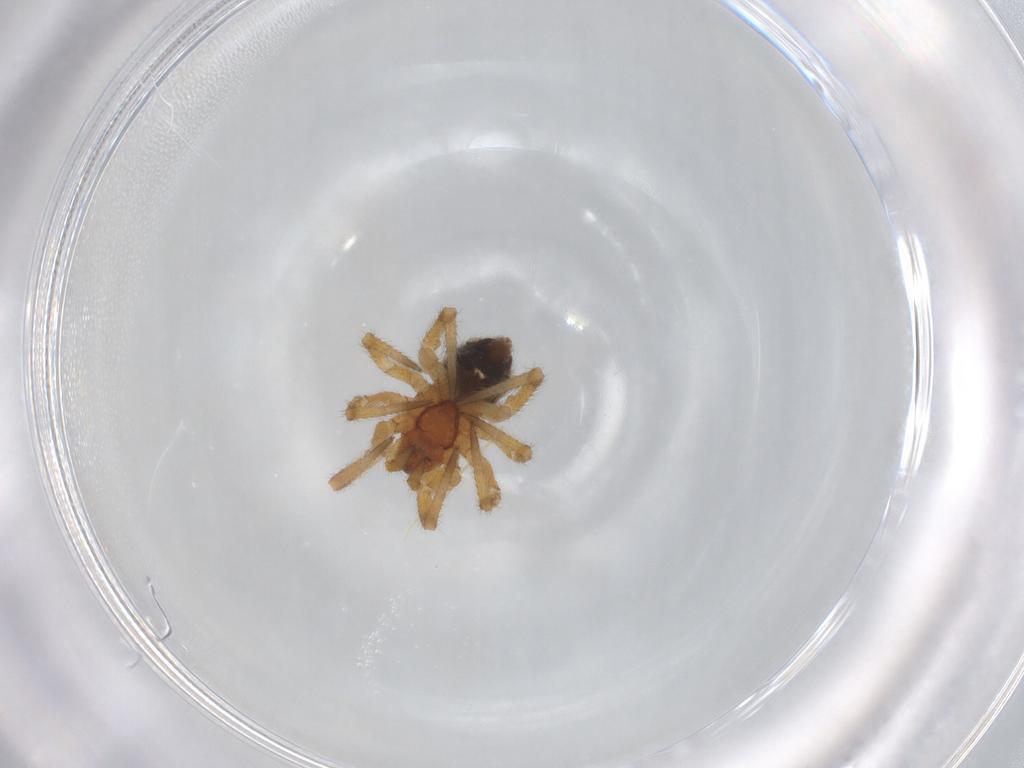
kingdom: Animalia
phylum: Arthropoda
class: Arachnida
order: Araneae
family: Theridiidae
